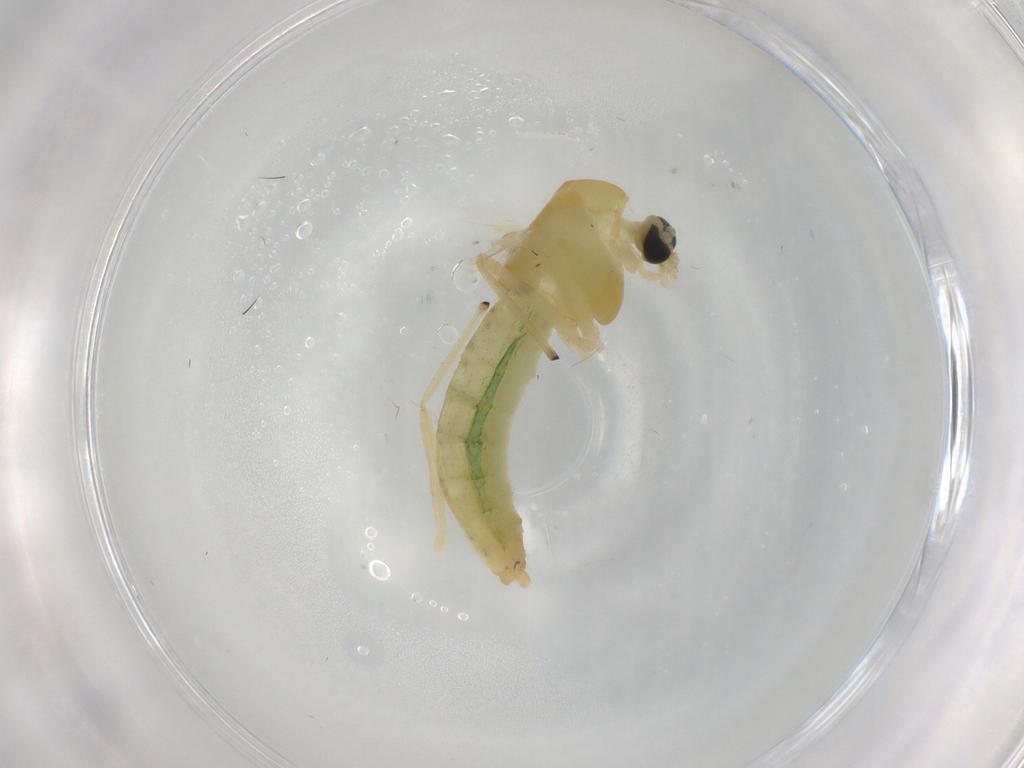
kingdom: Animalia
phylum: Arthropoda
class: Insecta
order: Diptera
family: Chironomidae
